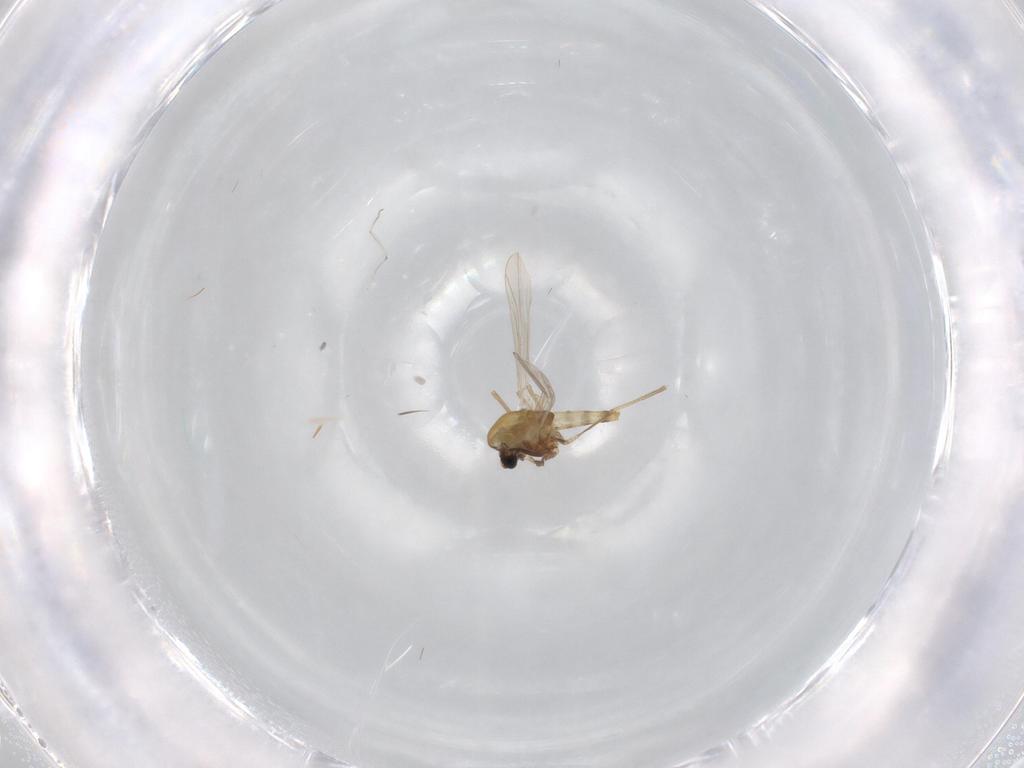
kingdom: Animalia
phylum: Arthropoda
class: Insecta
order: Diptera
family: Chironomidae
